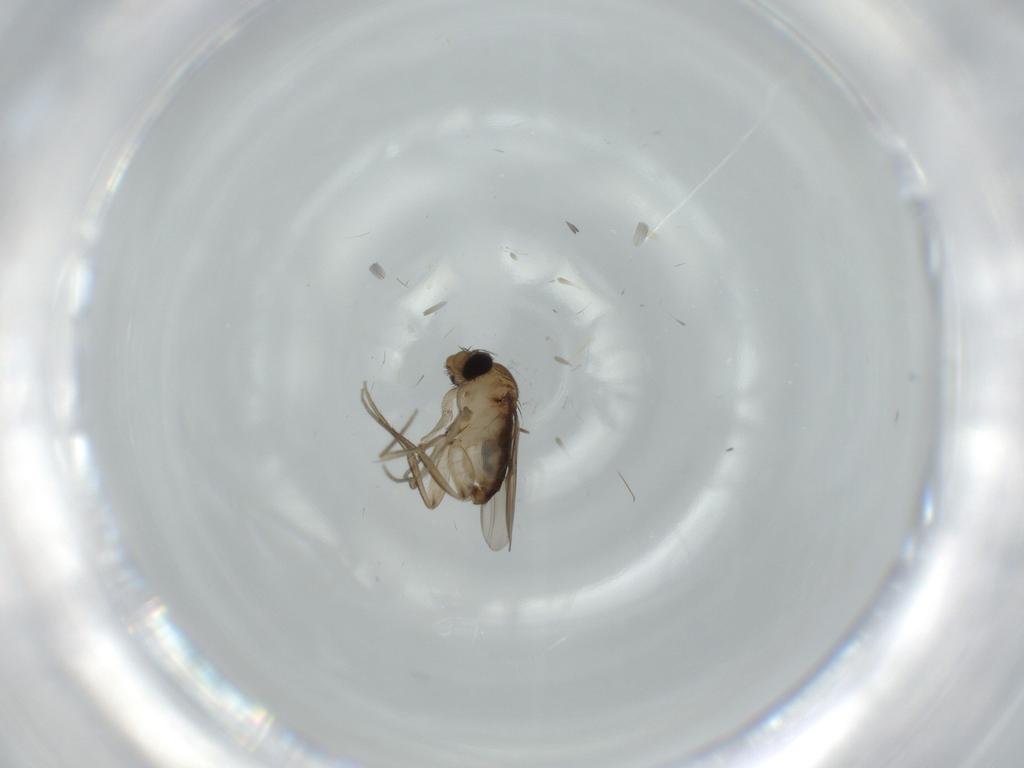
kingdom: Animalia
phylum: Arthropoda
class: Insecta
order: Diptera
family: Phoridae
